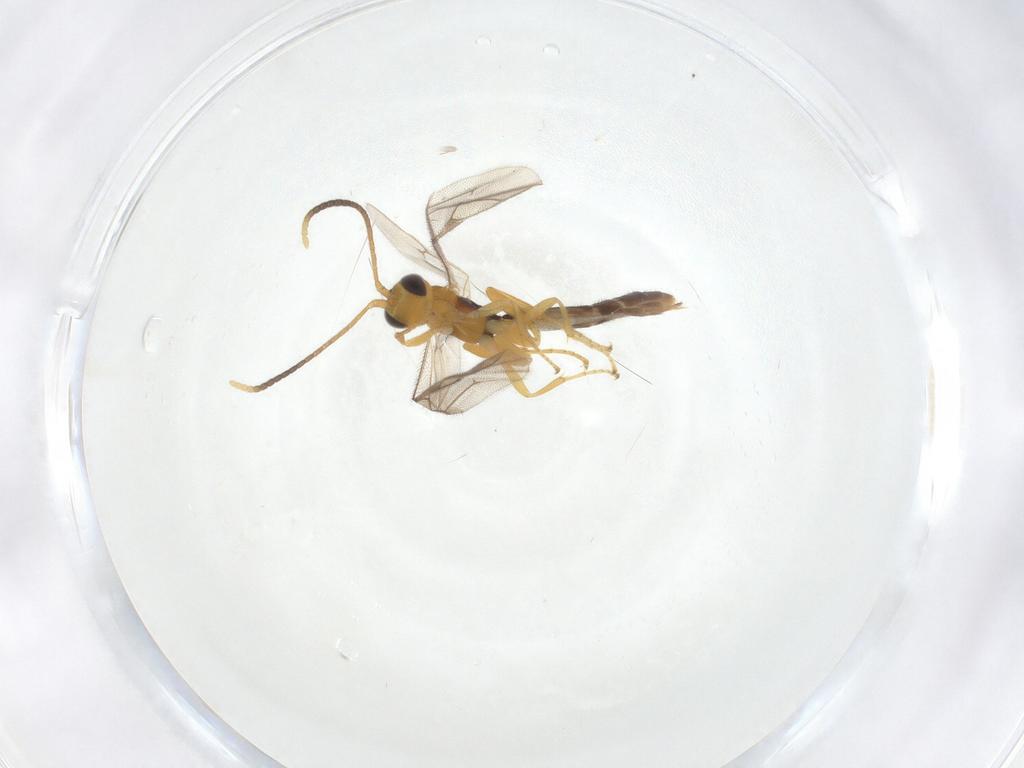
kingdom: Animalia
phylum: Arthropoda
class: Insecta
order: Hymenoptera
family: Ichneumonidae
